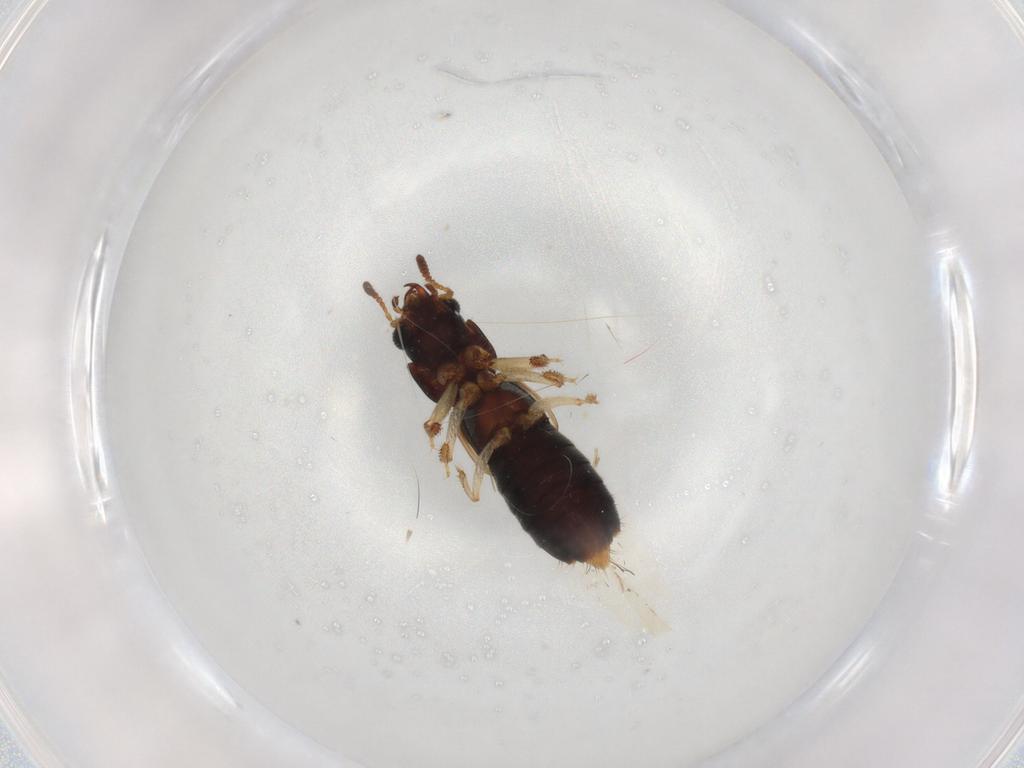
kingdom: Animalia
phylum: Arthropoda
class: Insecta
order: Coleoptera
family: Staphylinidae
